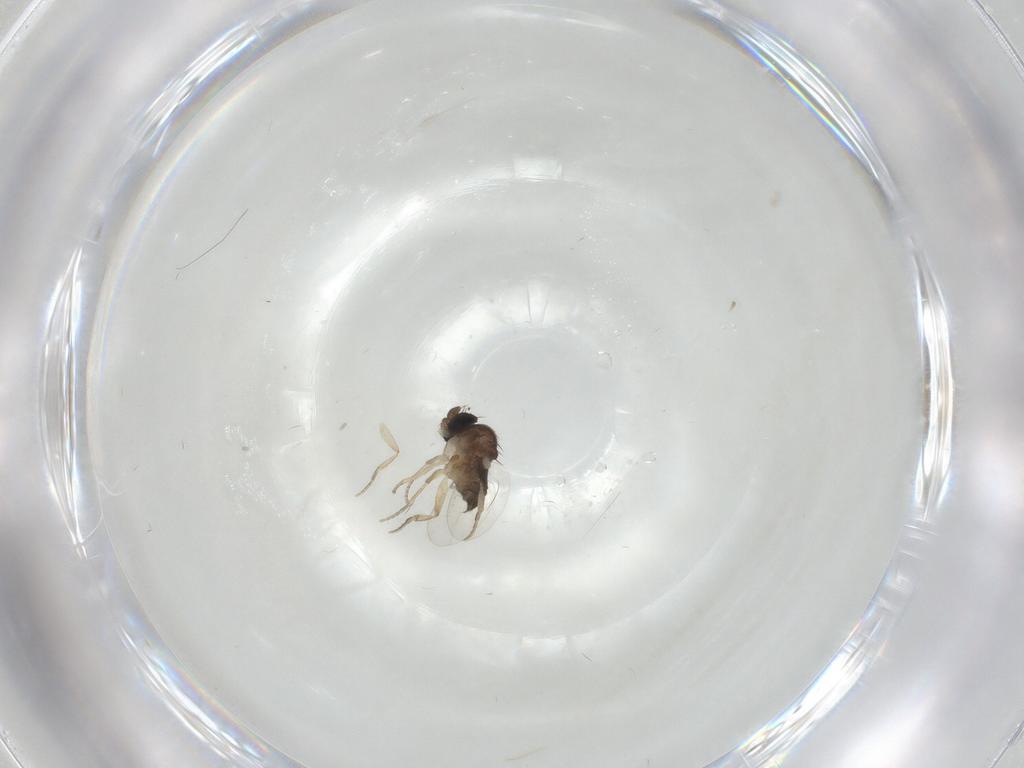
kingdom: Animalia
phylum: Arthropoda
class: Insecta
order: Diptera
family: Phoridae
